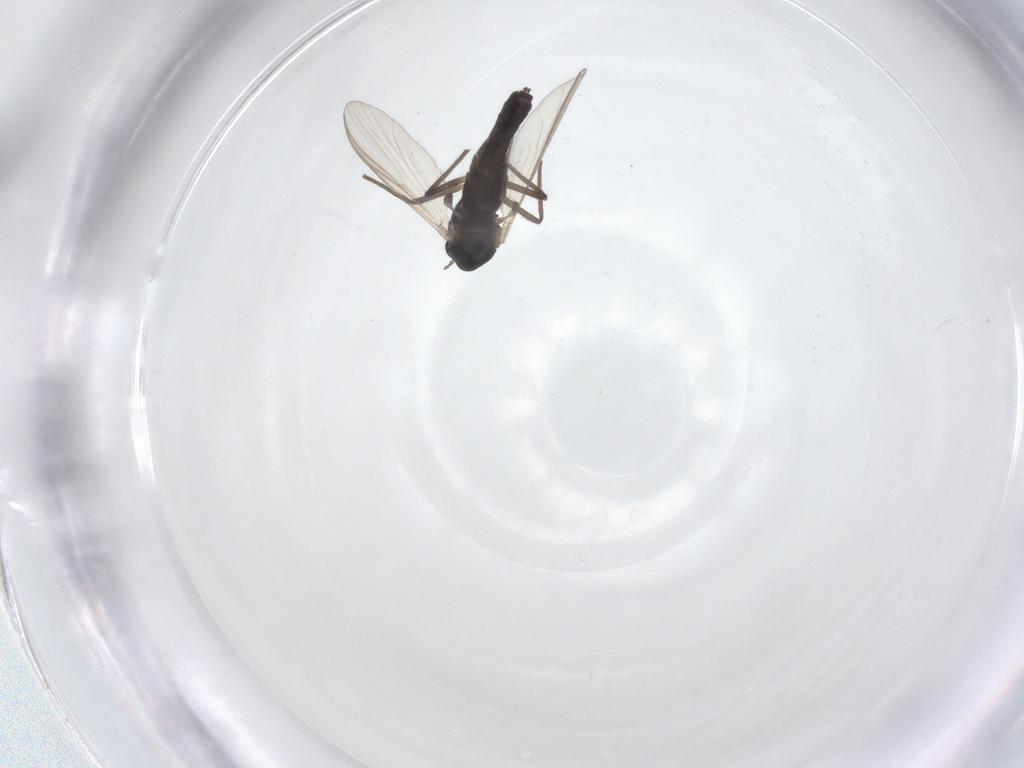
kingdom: Animalia
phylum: Arthropoda
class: Insecta
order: Diptera
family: Chironomidae
